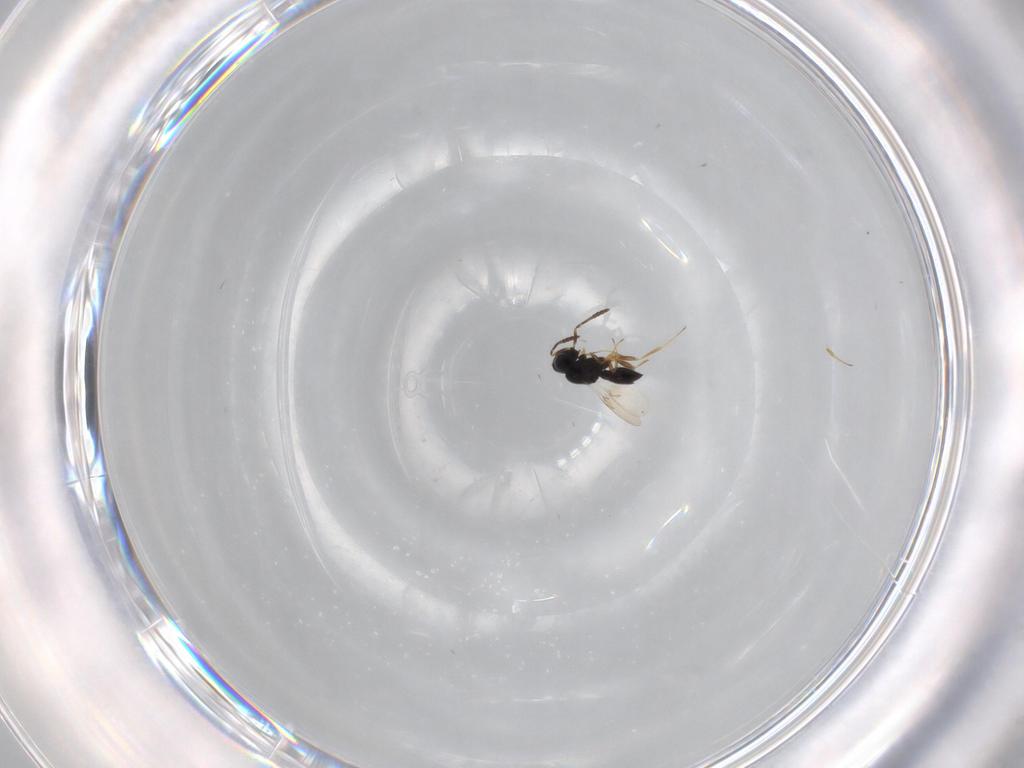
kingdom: Animalia
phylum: Arthropoda
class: Insecta
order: Hymenoptera
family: Scelionidae
